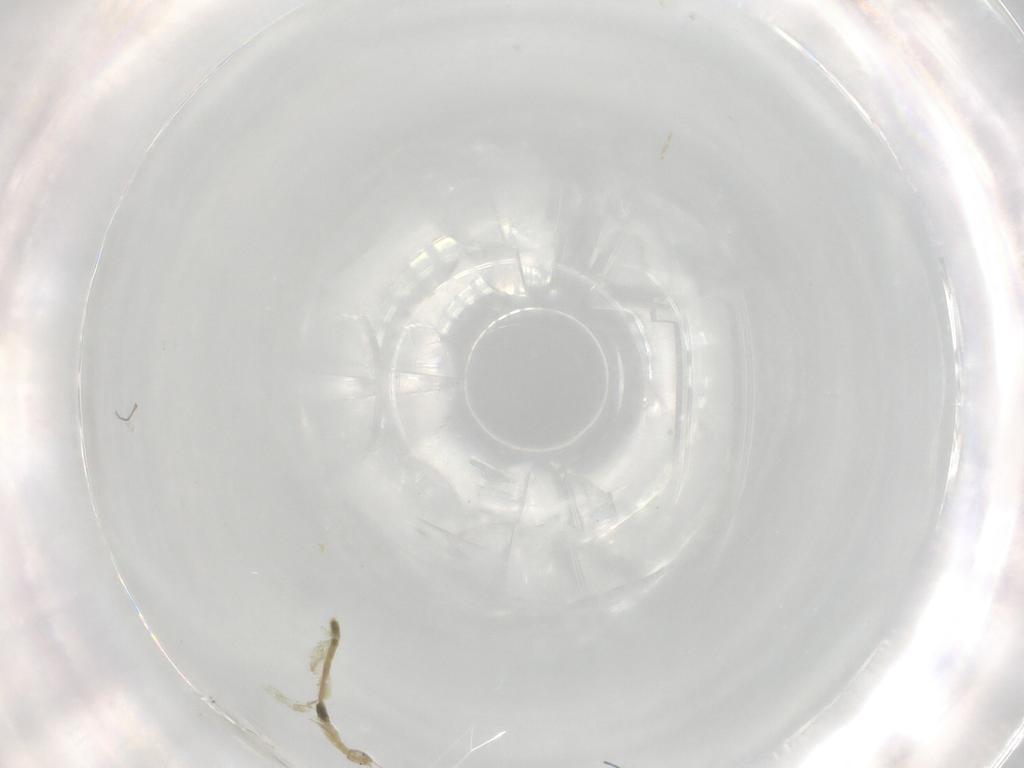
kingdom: Animalia
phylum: Arthropoda
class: Insecta
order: Diptera
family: Chironomidae
